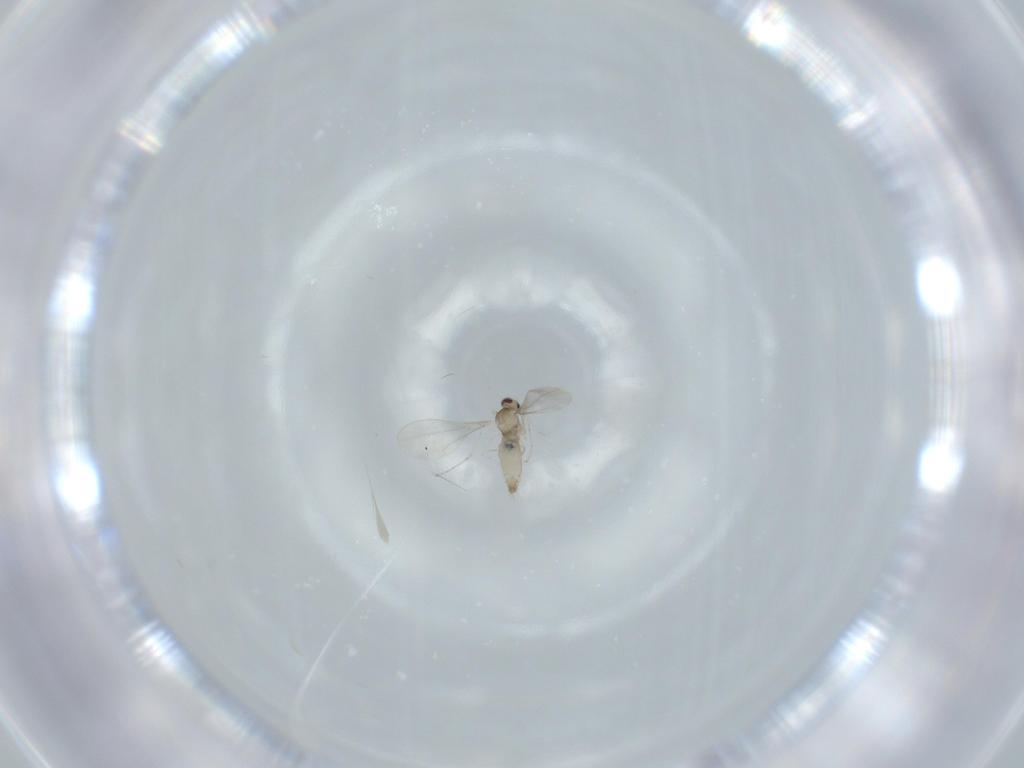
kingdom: Animalia
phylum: Arthropoda
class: Insecta
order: Diptera
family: Cecidomyiidae
